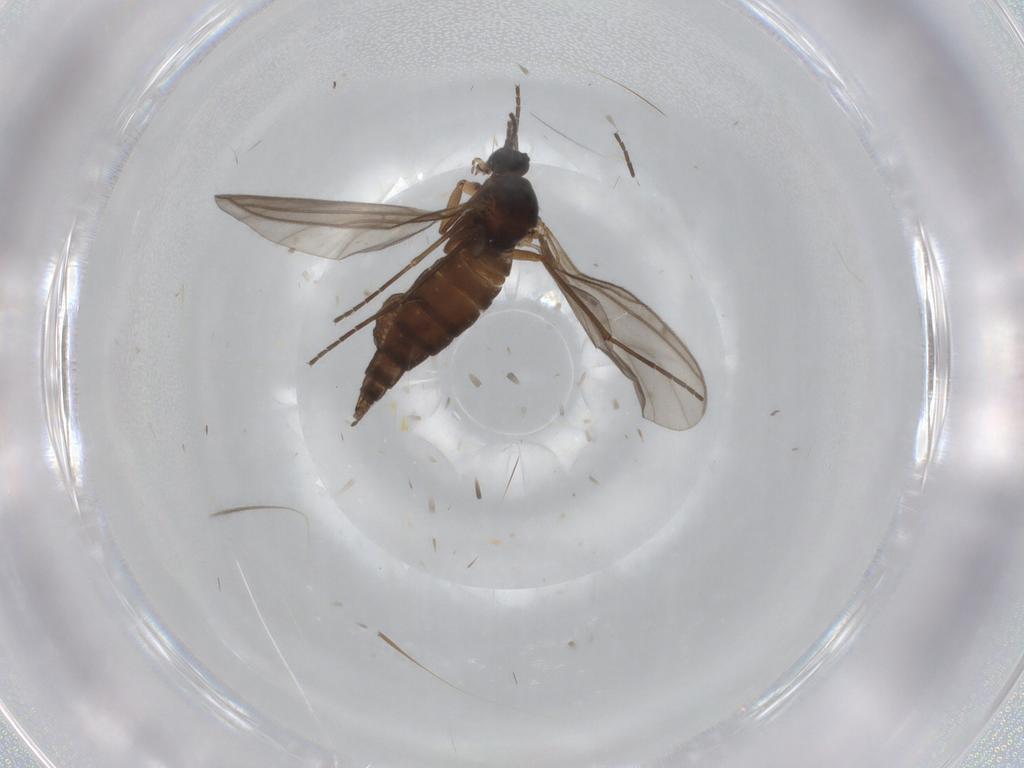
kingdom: Animalia
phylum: Arthropoda
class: Insecta
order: Diptera
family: Sciaridae
